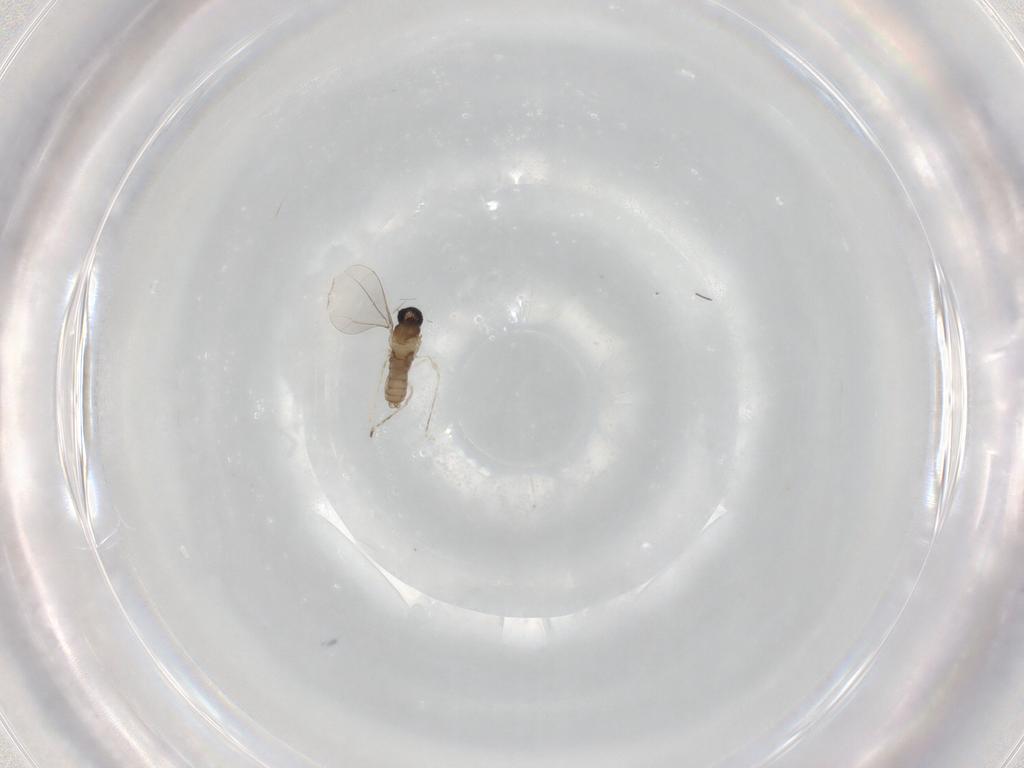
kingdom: Animalia
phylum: Arthropoda
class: Insecta
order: Diptera
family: Cecidomyiidae
